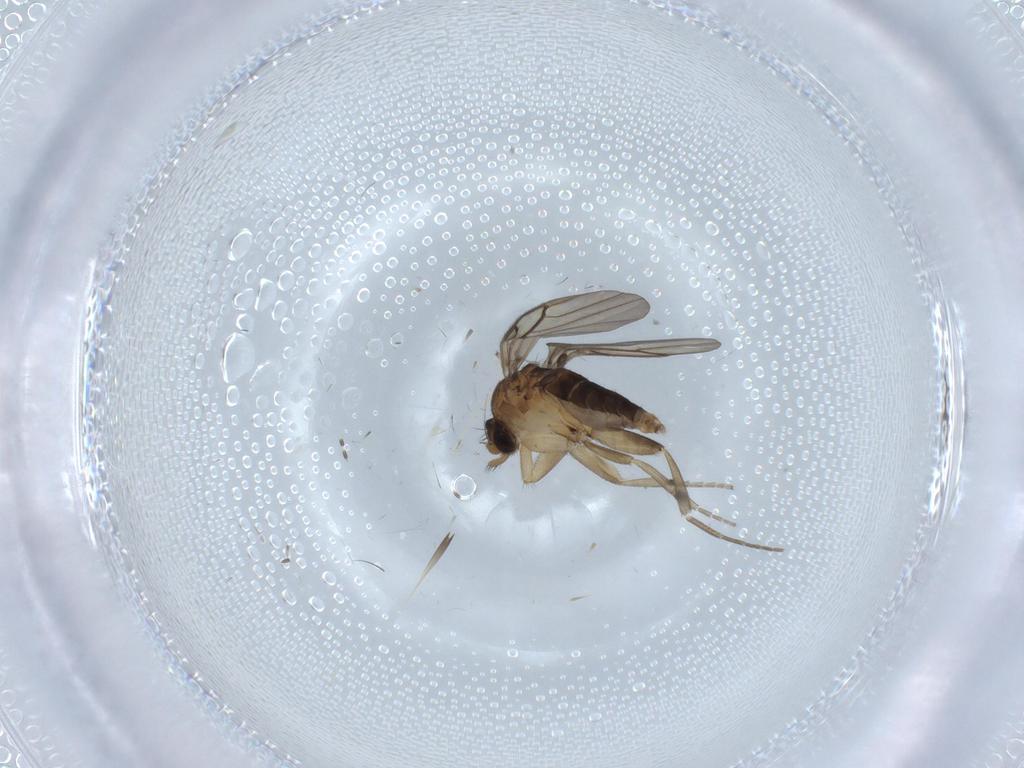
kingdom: Animalia
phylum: Arthropoda
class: Insecta
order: Diptera
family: Phoridae
